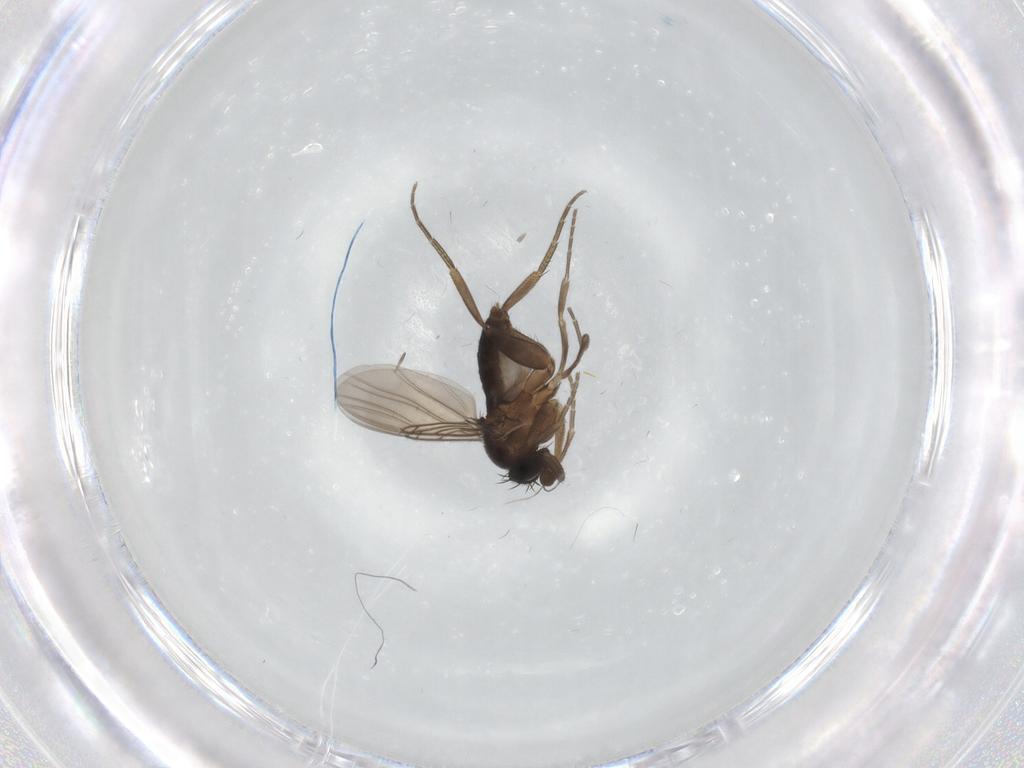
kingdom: Animalia
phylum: Arthropoda
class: Insecta
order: Diptera
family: Phoridae
